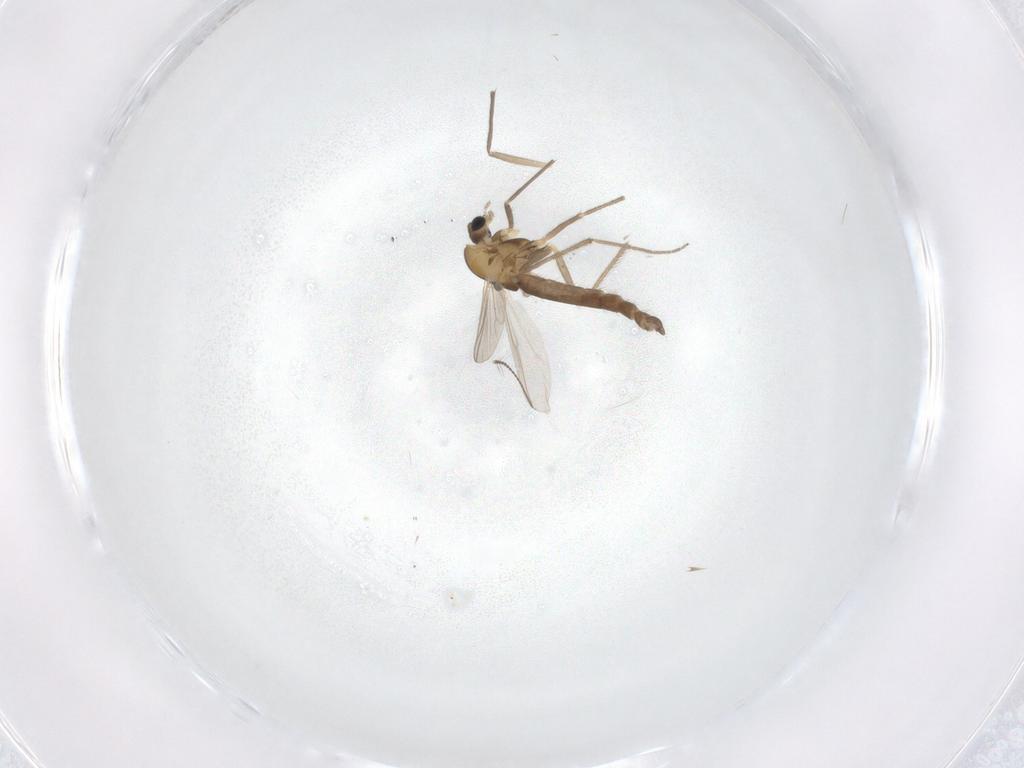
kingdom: Animalia
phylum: Arthropoda
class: Insecta
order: Diptera
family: Chironomidae
